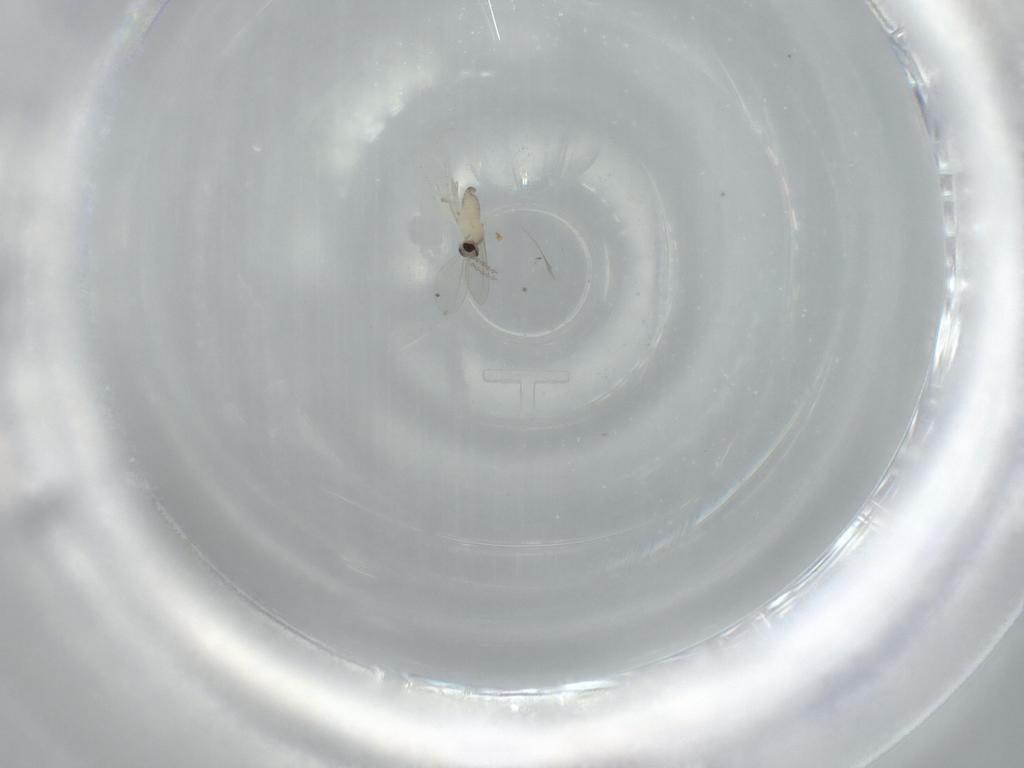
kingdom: Animalia
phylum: Arthropoda
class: Insecta
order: Diptera
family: Cecidomyiidae
